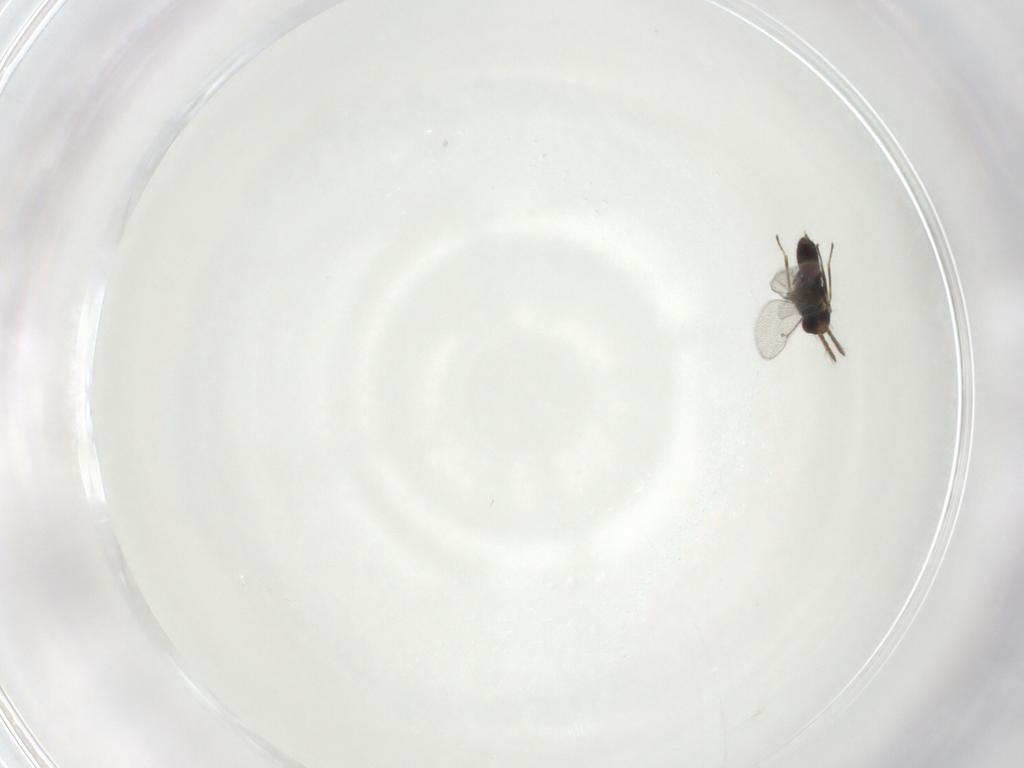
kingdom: Animalia
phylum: Arthropoda
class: Insecta
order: Hymenoptera
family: Eulophidae
